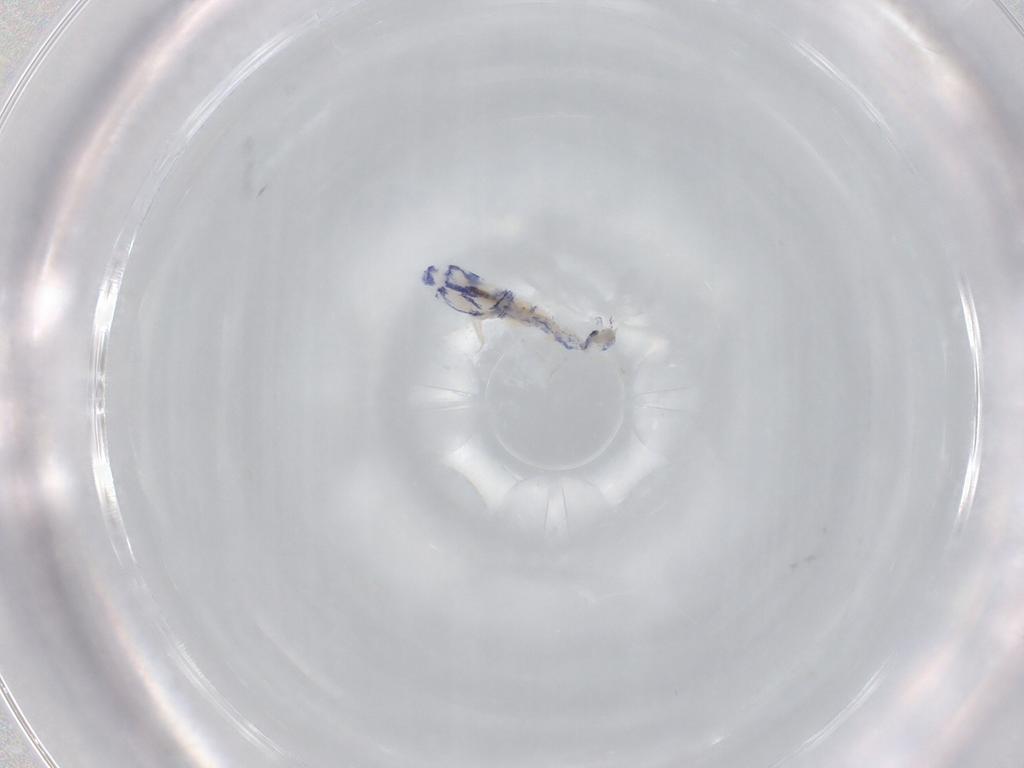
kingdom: Animalia
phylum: Arthropoda
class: Collembola
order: Entomobryomorpha
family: Entomobryidae
